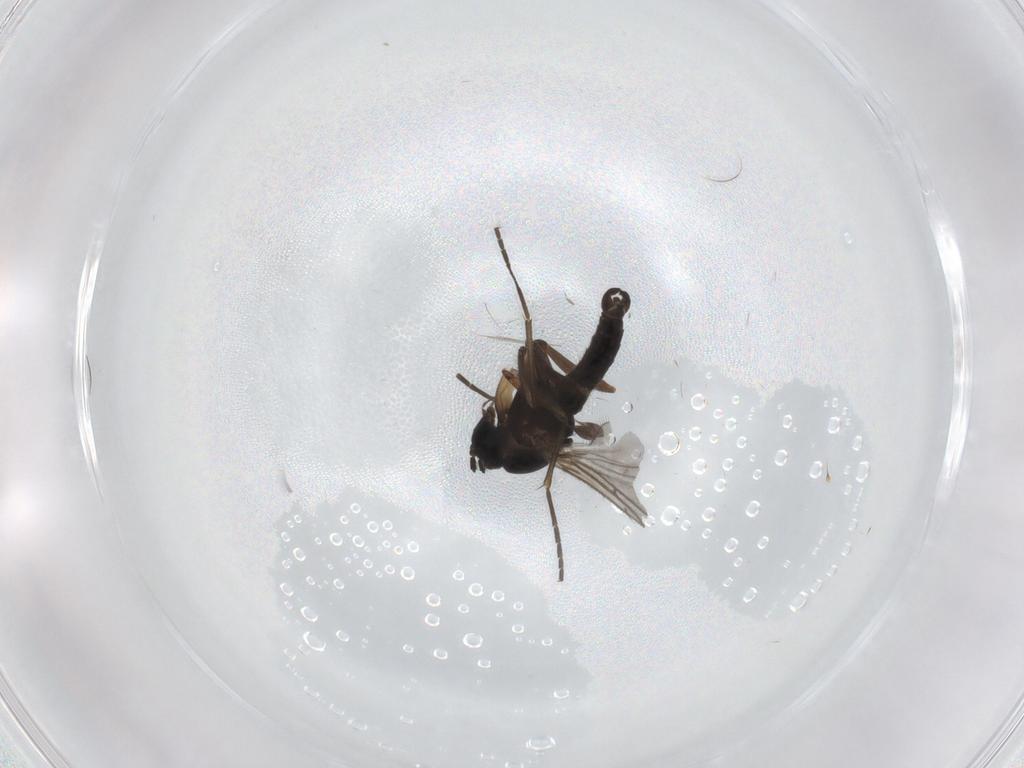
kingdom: Animalia
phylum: Arthropoda
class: Insecta
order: Diptera
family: Sciaridae
